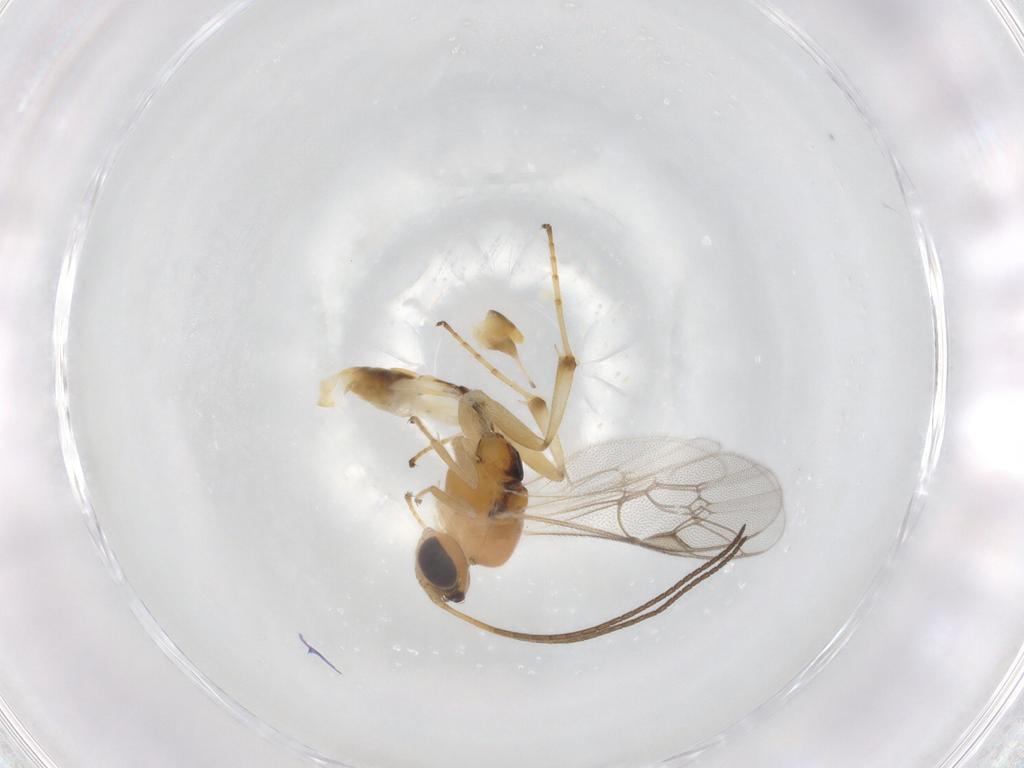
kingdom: Animalia
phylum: Arthropoda
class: Insecta
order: Hymenoptera
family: Ichneumonidae
